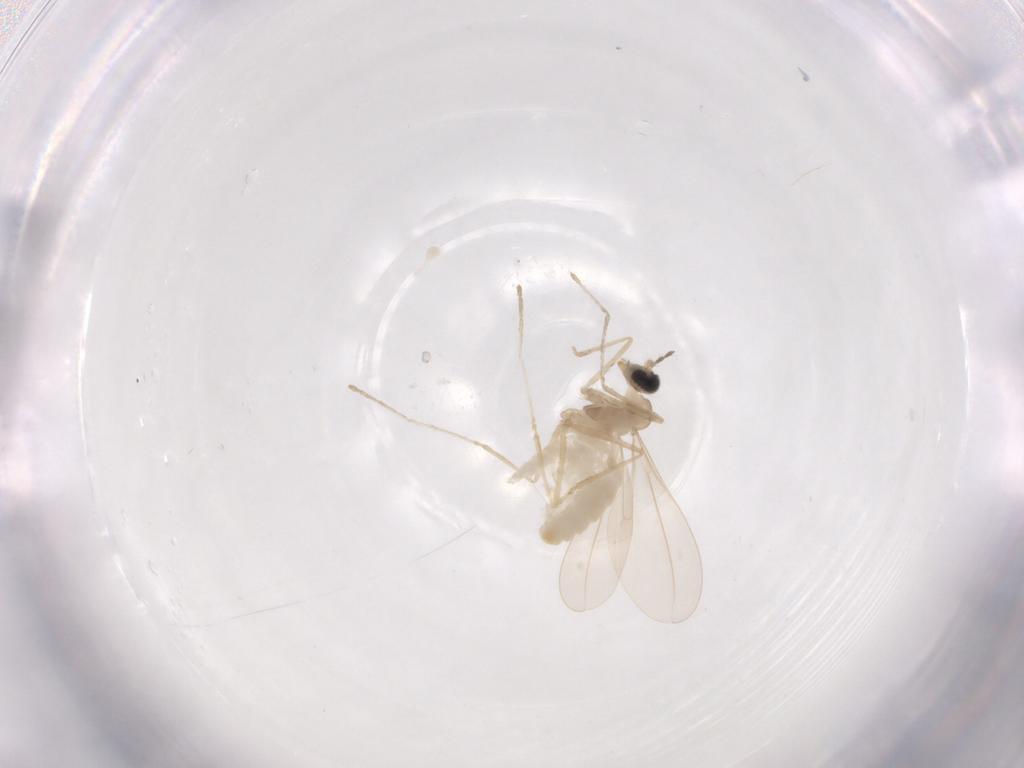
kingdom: Animalia
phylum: Arthropoda
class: Insecta
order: Diptera
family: Cecidomyiidae
